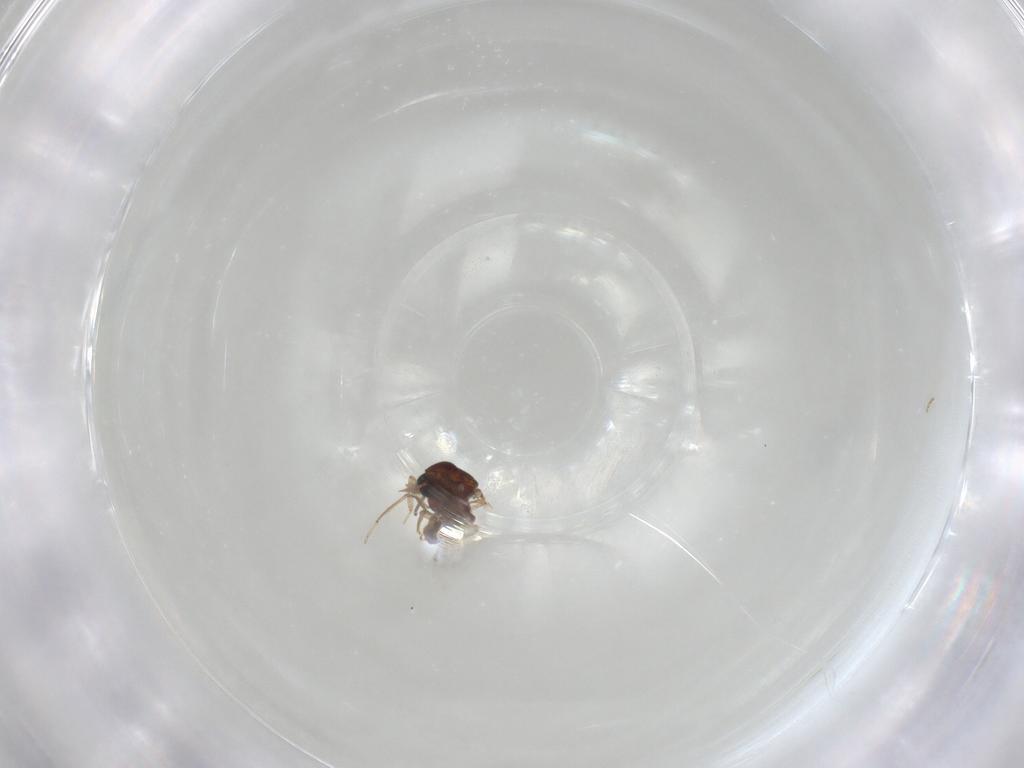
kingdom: Animalia
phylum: Arthropoda
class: Insecta
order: Diptera
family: Ceratopogonidae
